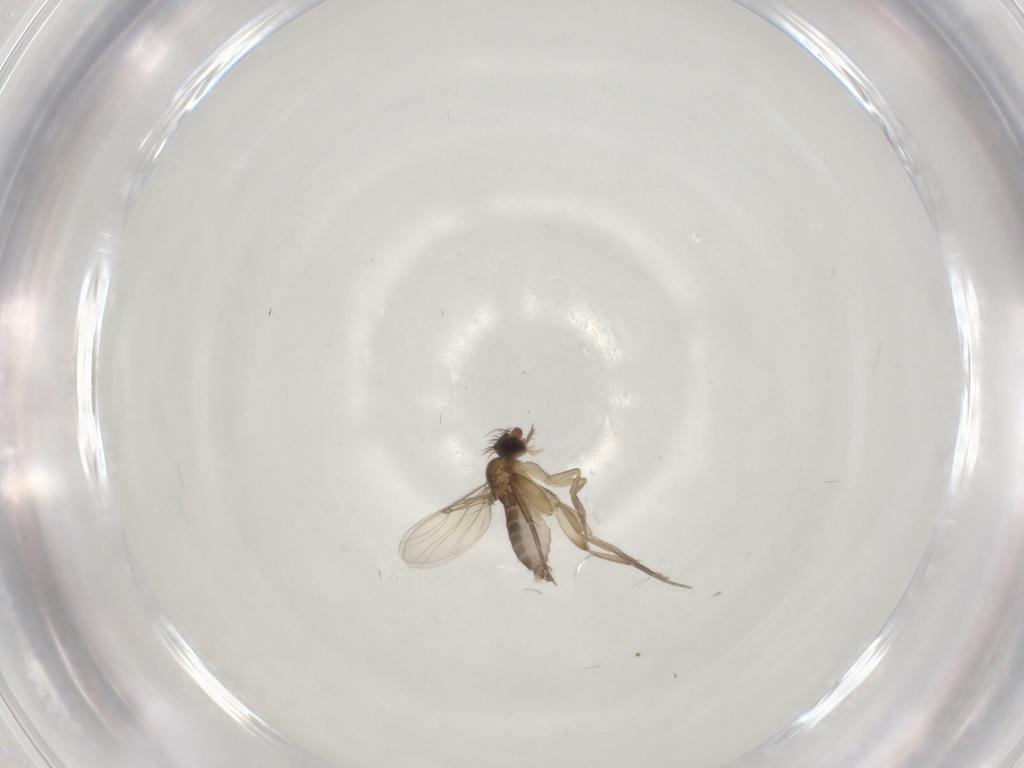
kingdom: Animalia
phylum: Arthropoda
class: Insecta
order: Diptera
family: Phoridae
